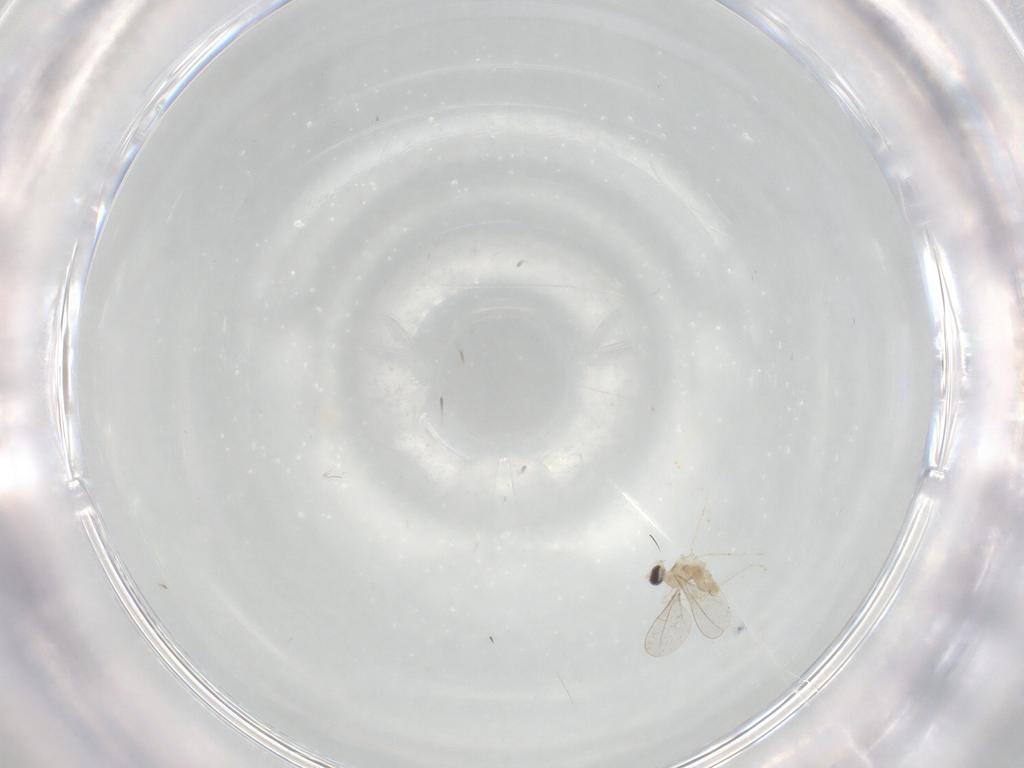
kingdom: Animalia
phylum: Arthropoda
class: Insecta
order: Diptera
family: Cecidomyiidae
